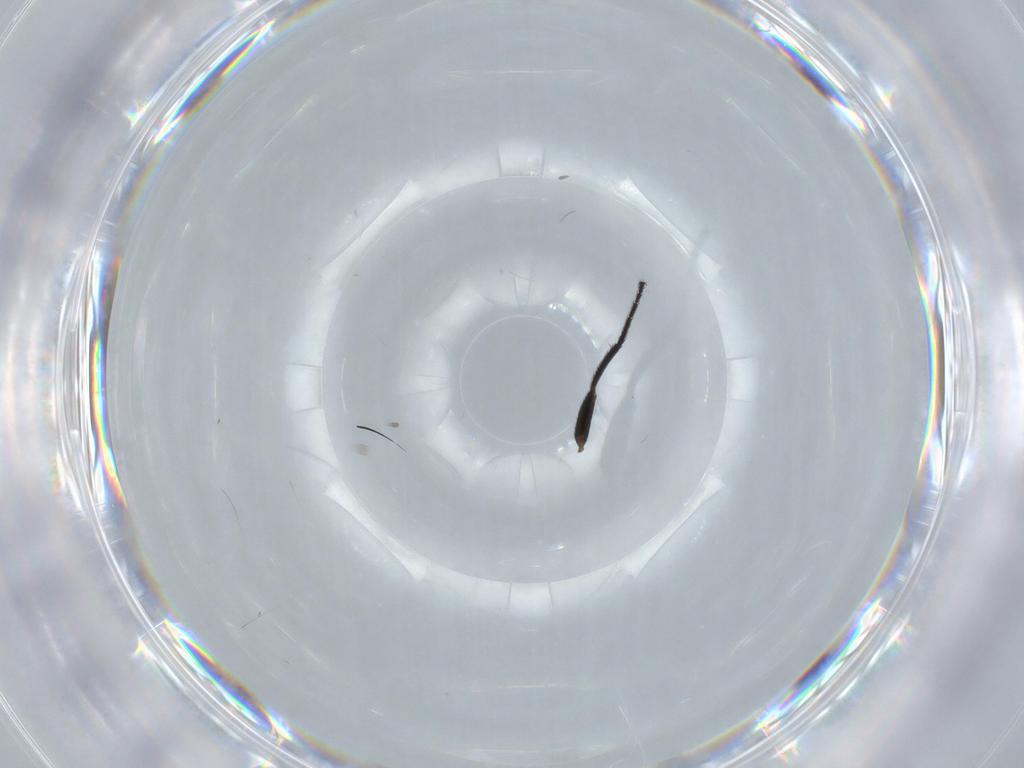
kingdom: Animalia
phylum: Arthropoda
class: Insecta
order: Diptera
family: Milichiidae
